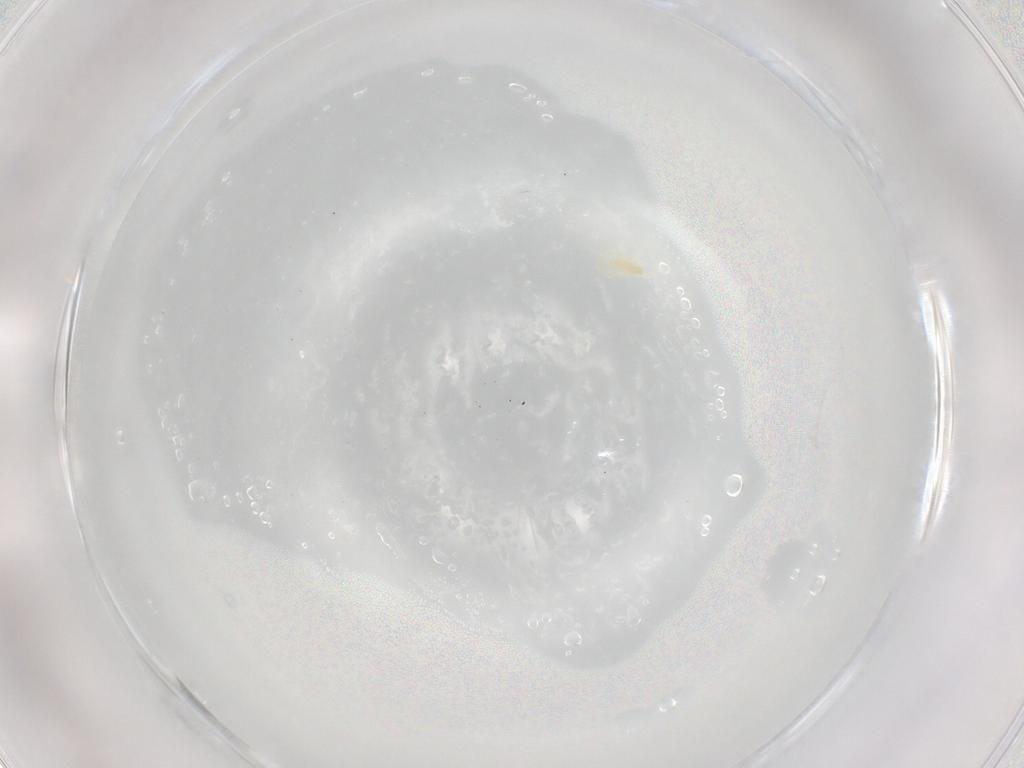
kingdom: Animalia
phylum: Arthropoda
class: Arachnida
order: Trombidiformes
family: Rhagidiidae
